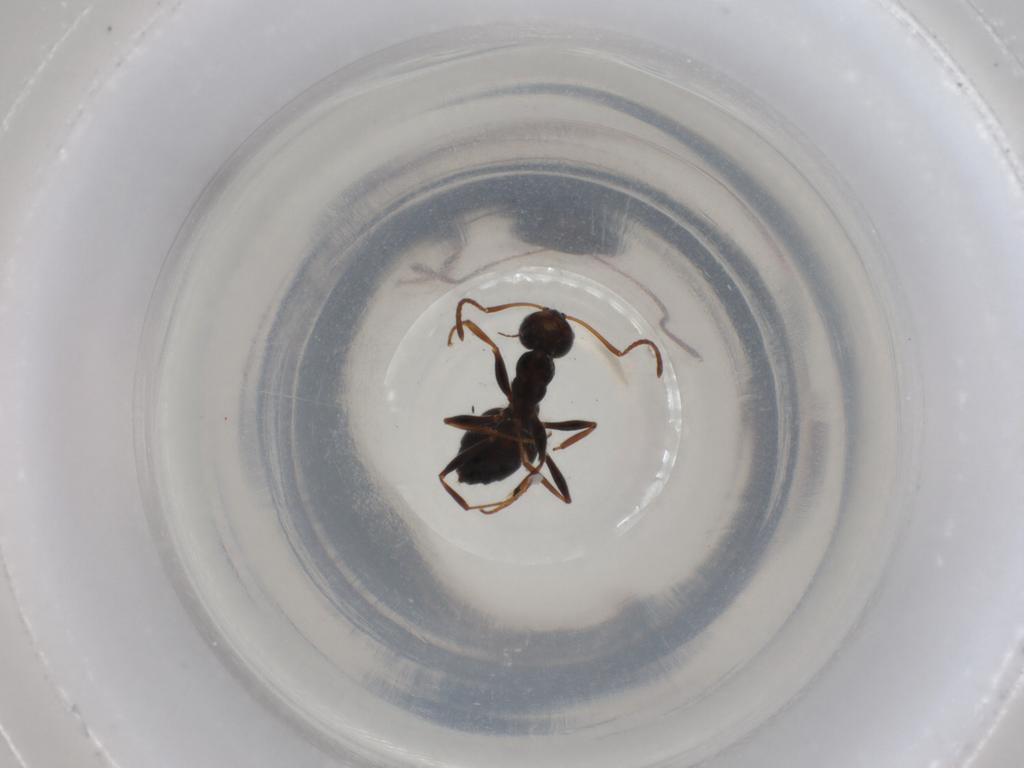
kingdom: Animalia
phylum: Arthropoda
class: Insecta
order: Hymenoptera
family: Formicidae
